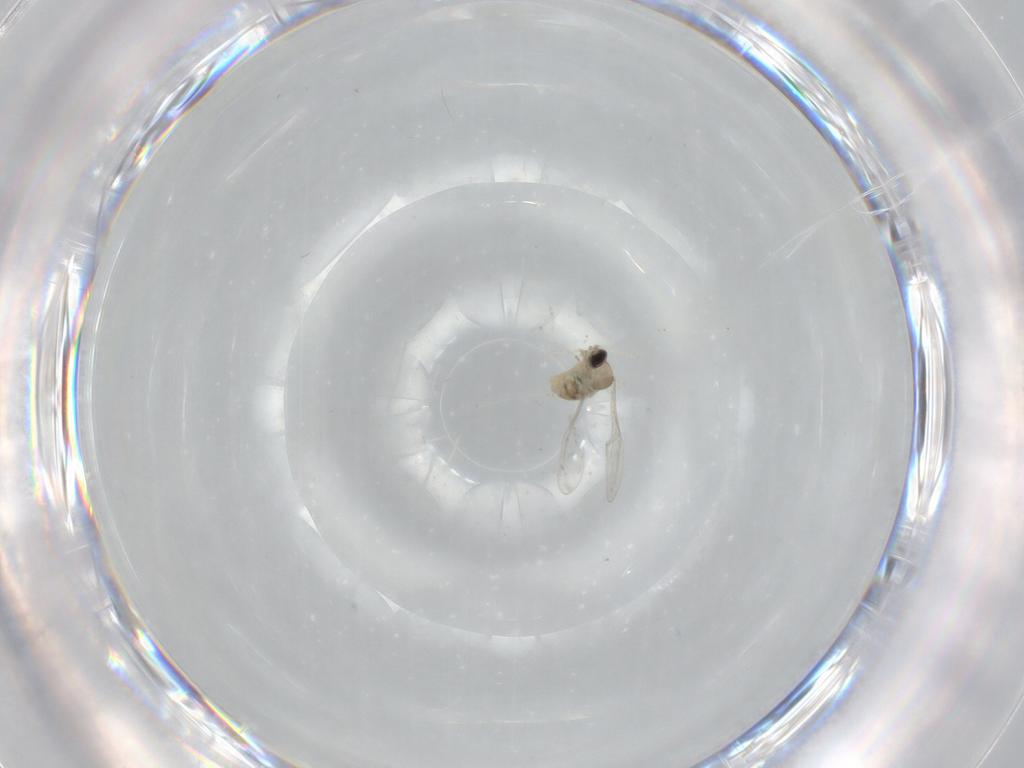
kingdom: Animalia
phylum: Arthropoda
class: Insecta
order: Diptera
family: Cecidomyiidae
